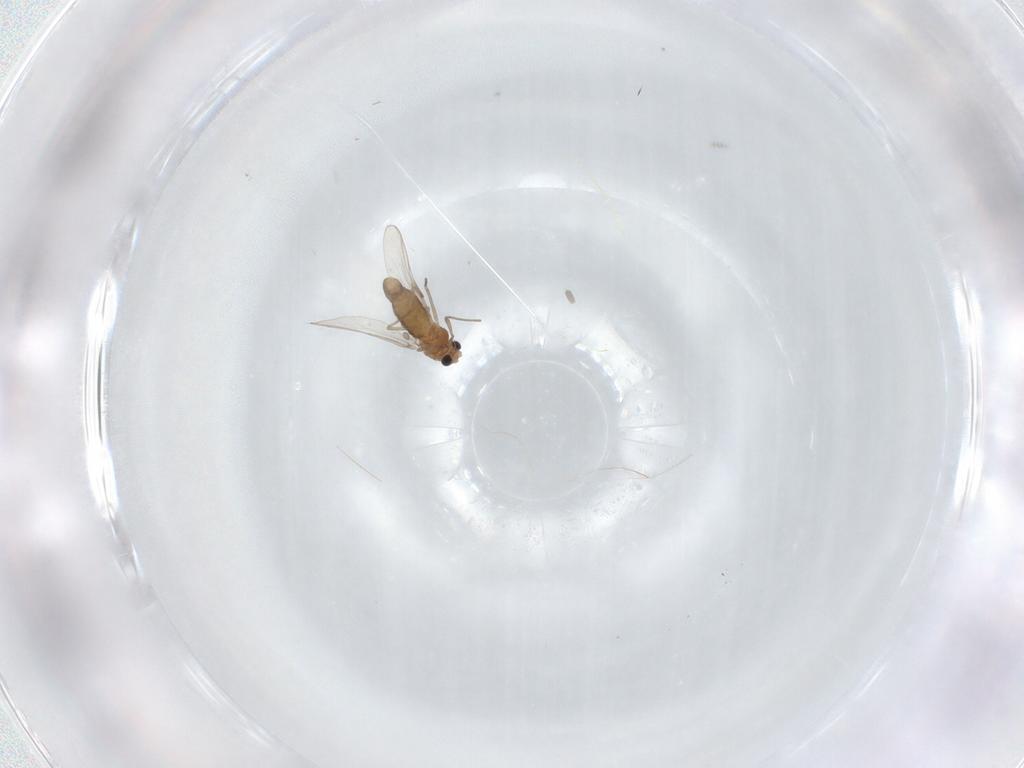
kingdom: Animalia
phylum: Arthropoda
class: Insecta
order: Diptera
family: Chironomidae
